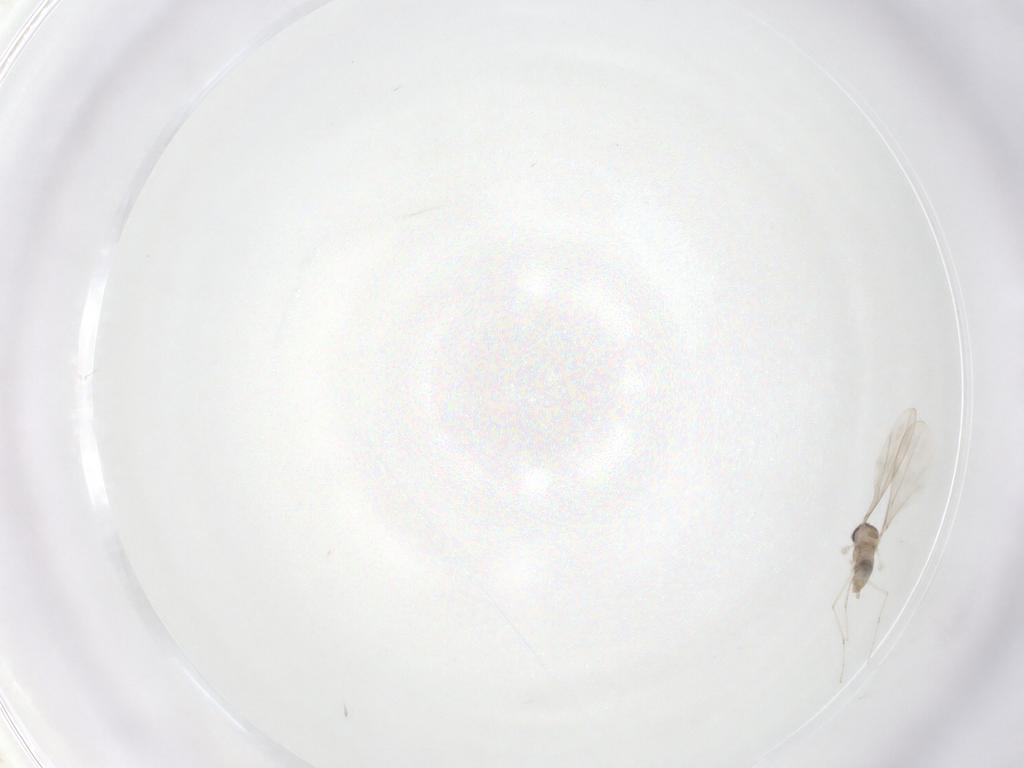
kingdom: Animalia
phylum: Arthropoda
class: Insecta
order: Diptera
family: Cecidomyiidae
